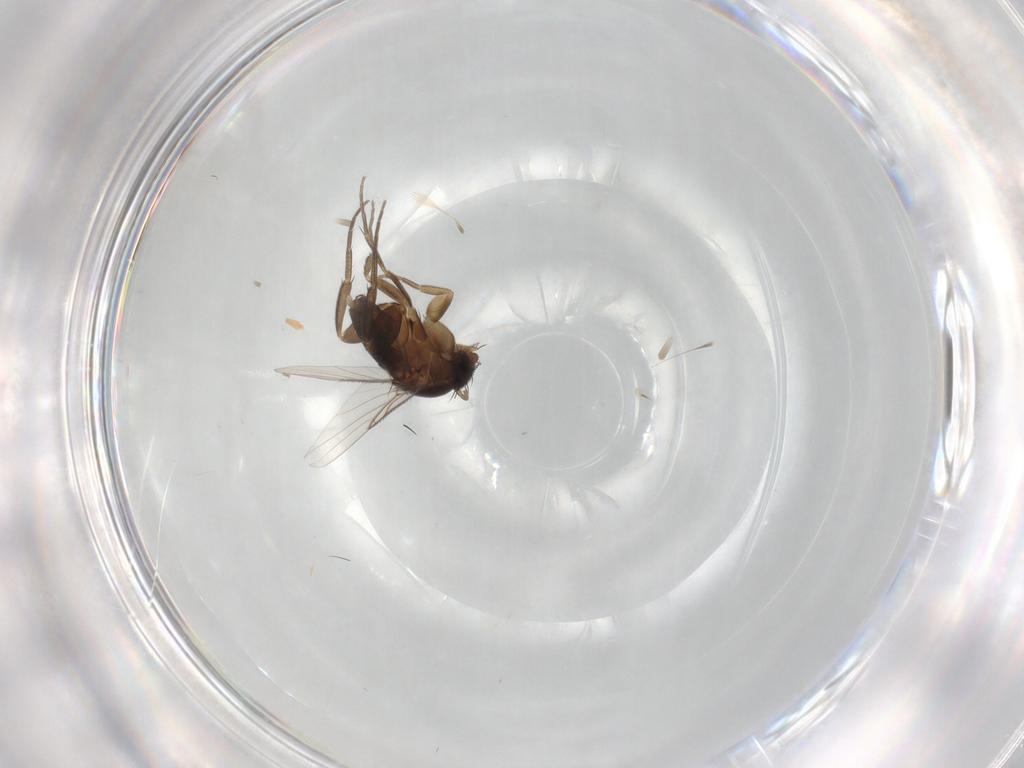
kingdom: Animalia
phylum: Arthropoda
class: Insecta
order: Diptera
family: Phoridae
